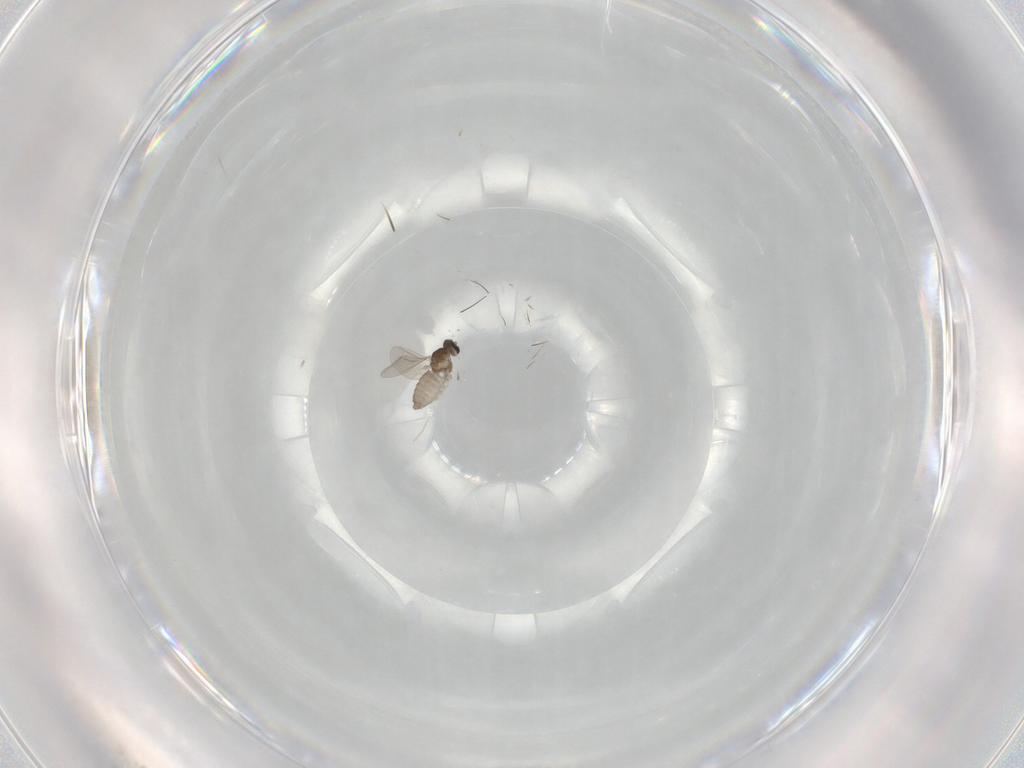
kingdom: Animalia
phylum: Arthropoda
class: Insecta
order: Diptera
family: Cecidomyiidae
